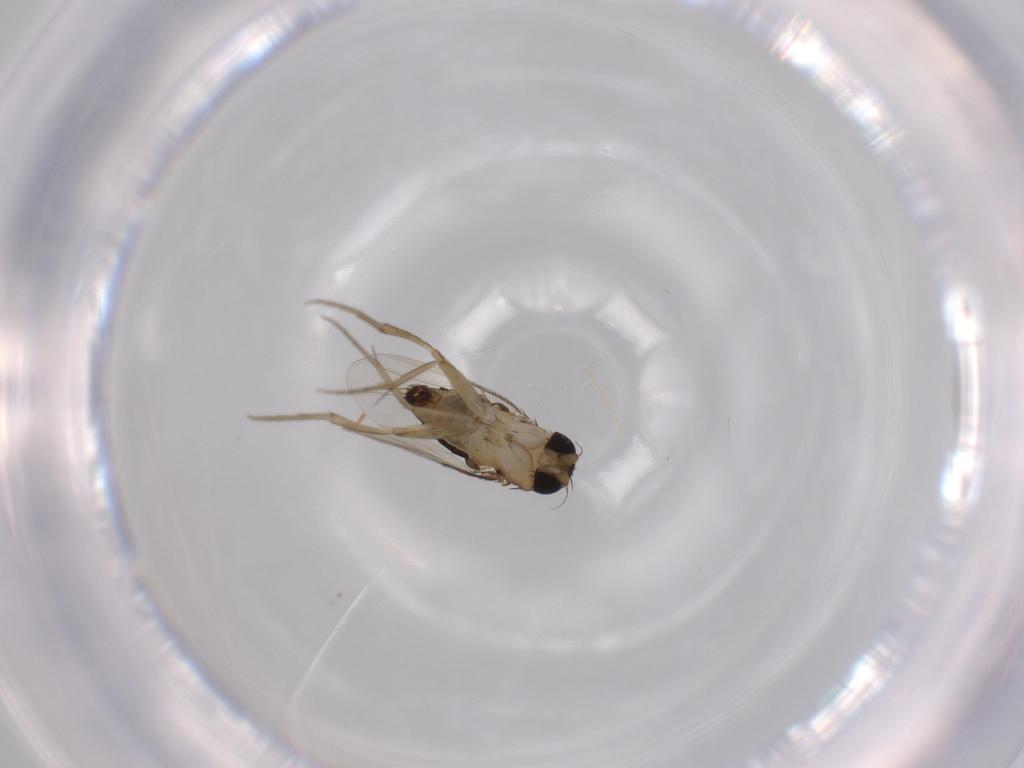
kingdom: Animalia
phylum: Arthropoda
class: Insecta
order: Diptera
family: Phoridae
